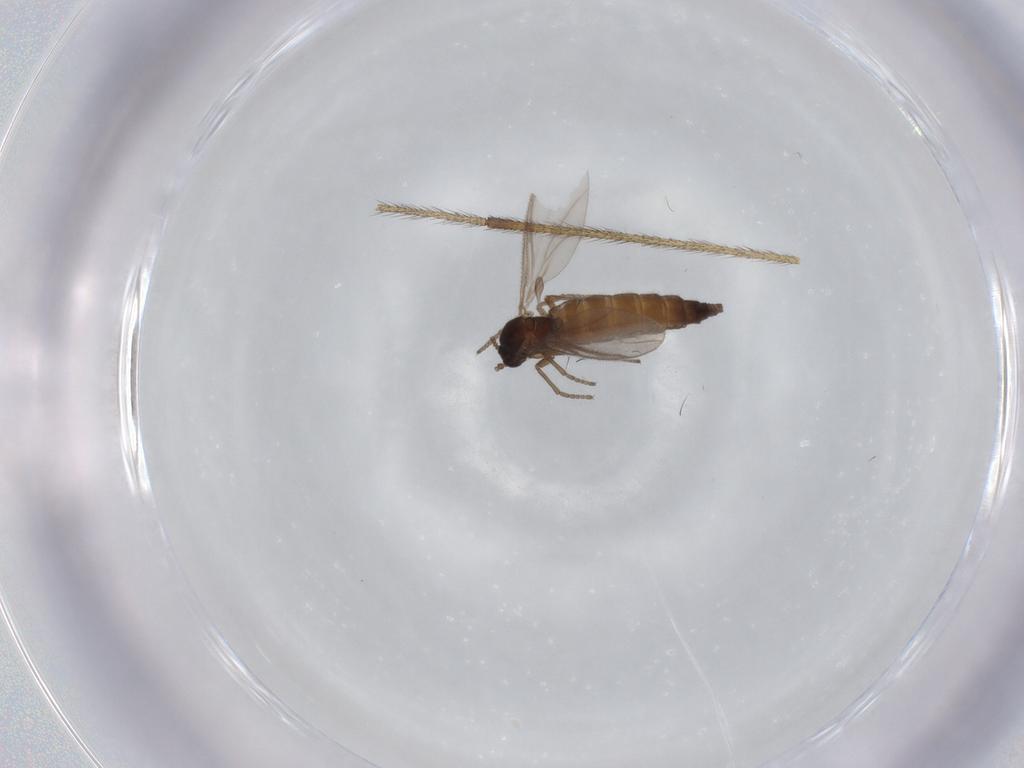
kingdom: Animalia
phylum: Arthropoda
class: Insecta
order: Diptera
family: Sciaridae
